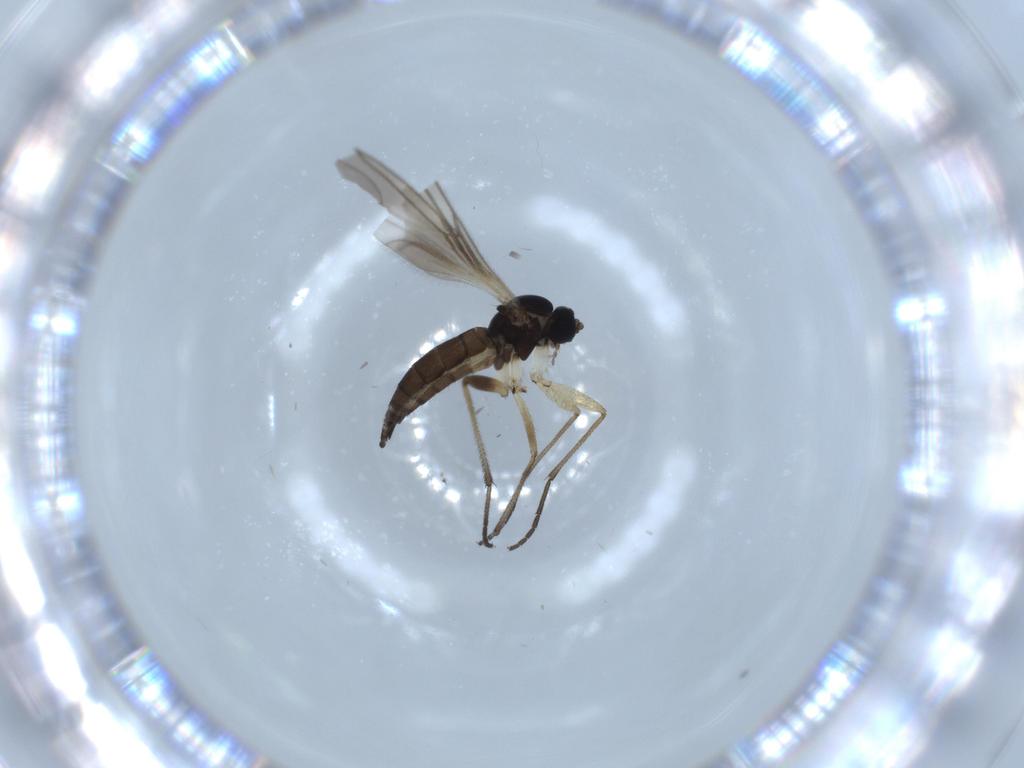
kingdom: Animalia
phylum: Arthropoda
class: Insecta
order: Diptera
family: Sciaridae
